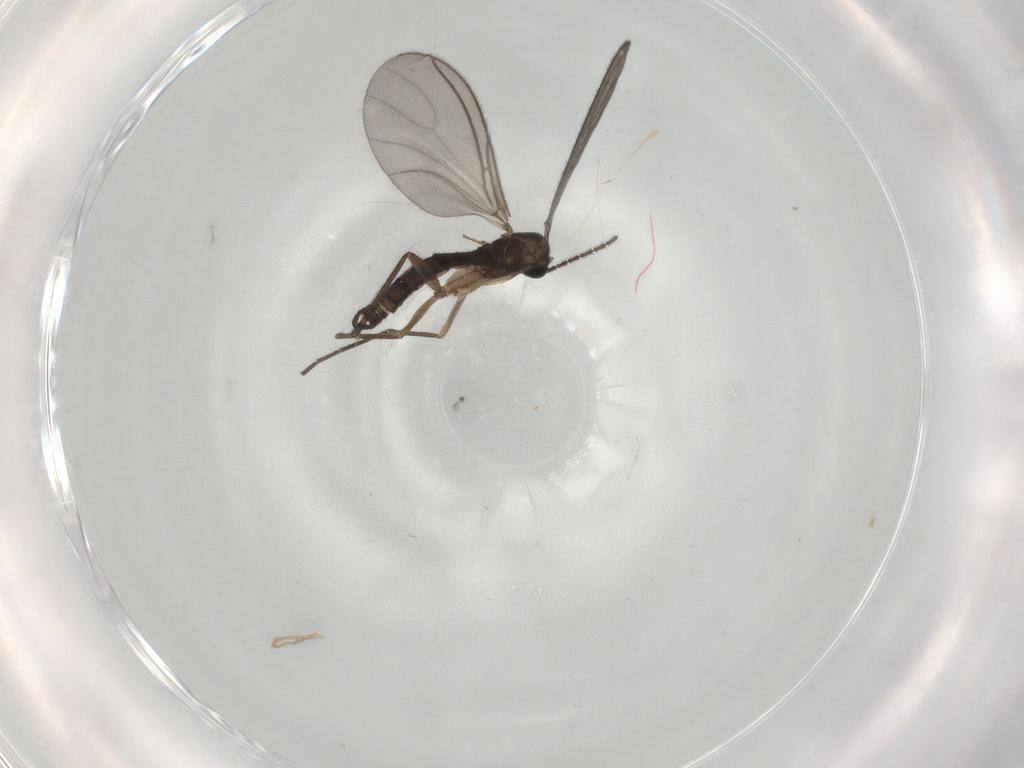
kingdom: Animalia
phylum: Arthropoda
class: Insecta
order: Diptera
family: Sciaridae
